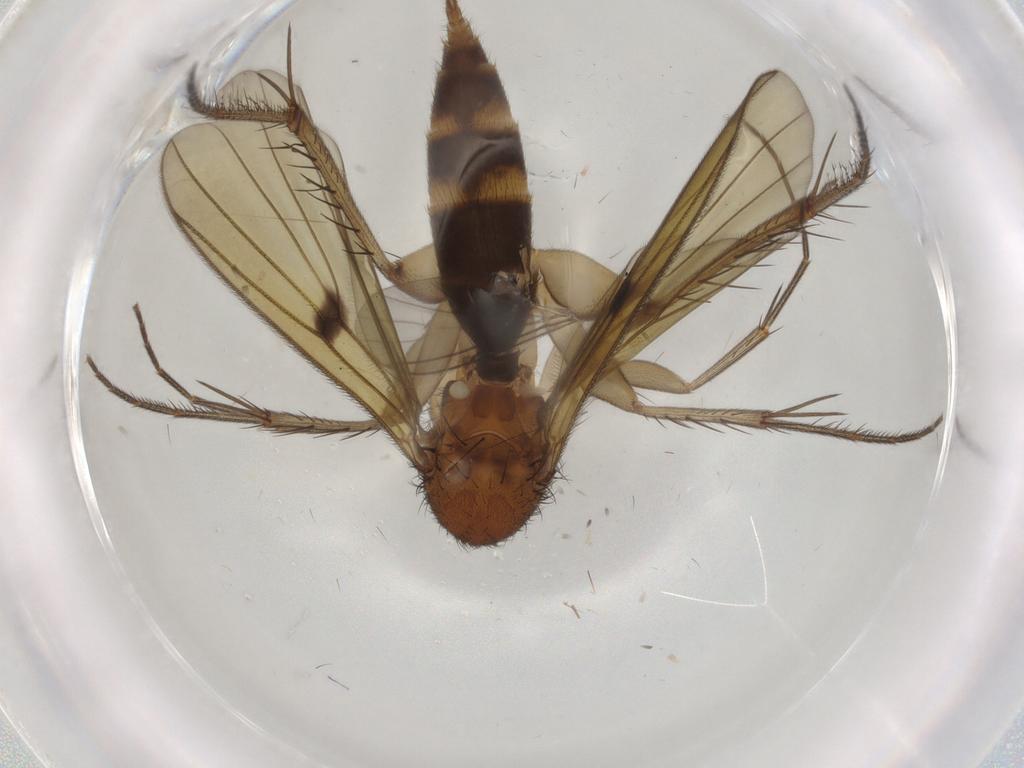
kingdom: Animalia
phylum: Arthropoda
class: Insecta
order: Diptera
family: Mycetophilidae
